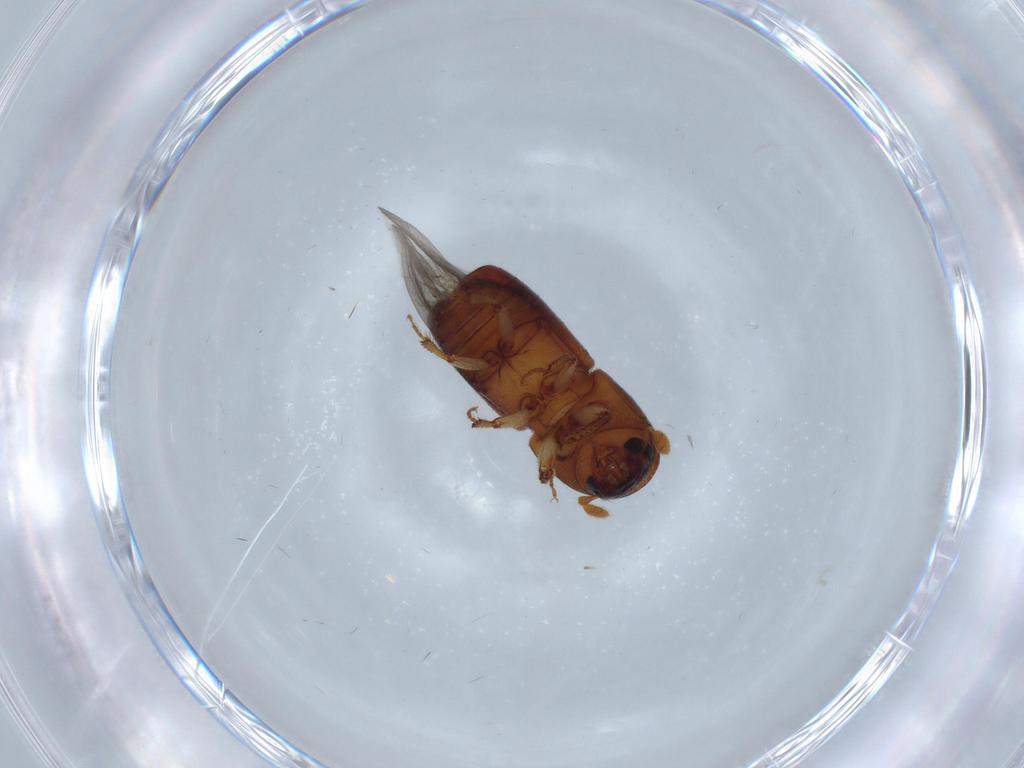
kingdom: Animalia
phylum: Arthropoda
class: Insecta
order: Coleoptera
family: Curculionidae
